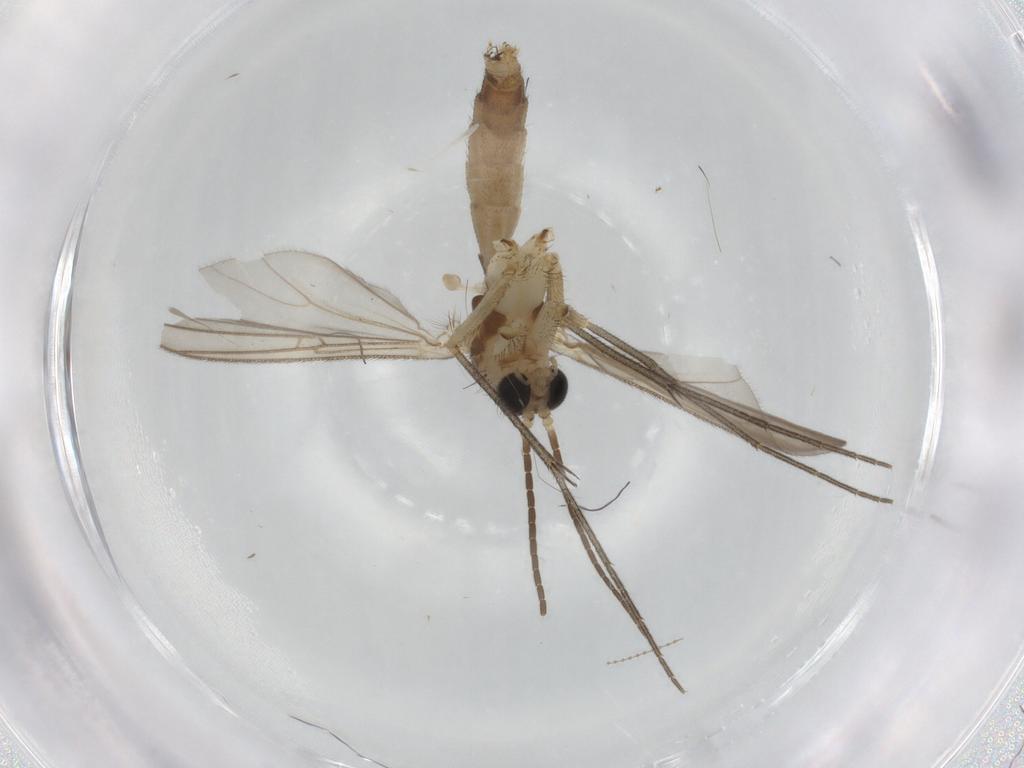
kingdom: Animalia
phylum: Arthropoda
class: Insecta
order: Diptera
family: Mycetophilidae
